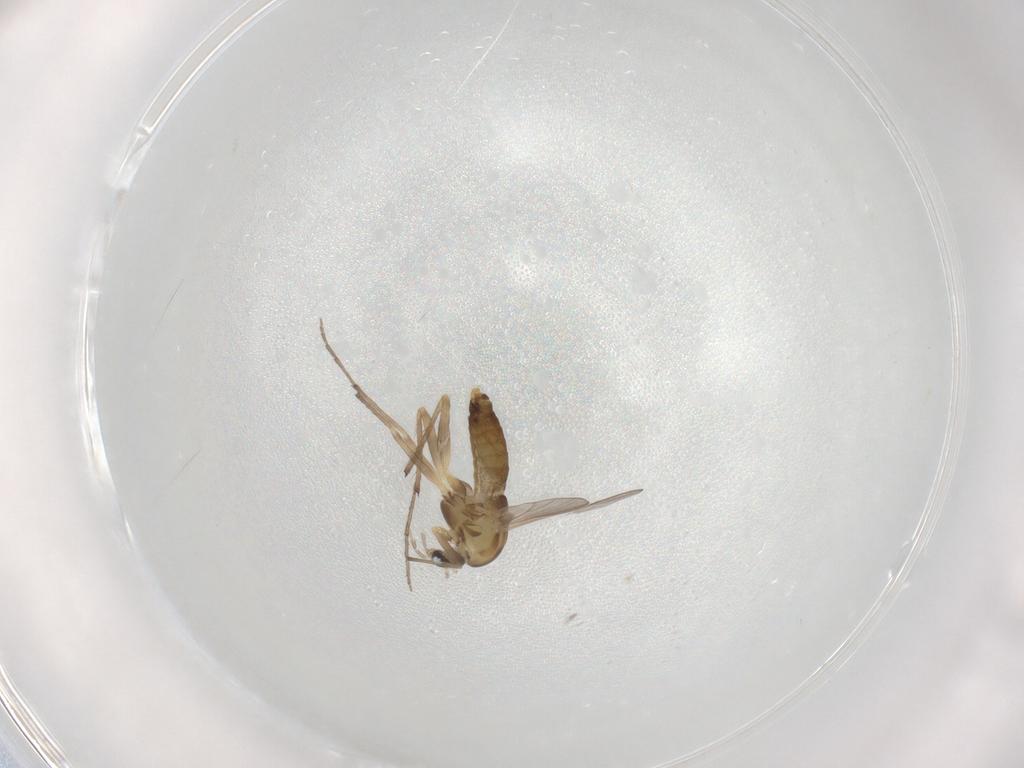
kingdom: Animalia
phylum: Arthropoda
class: Insecta
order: Diptera
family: Chironomidae
